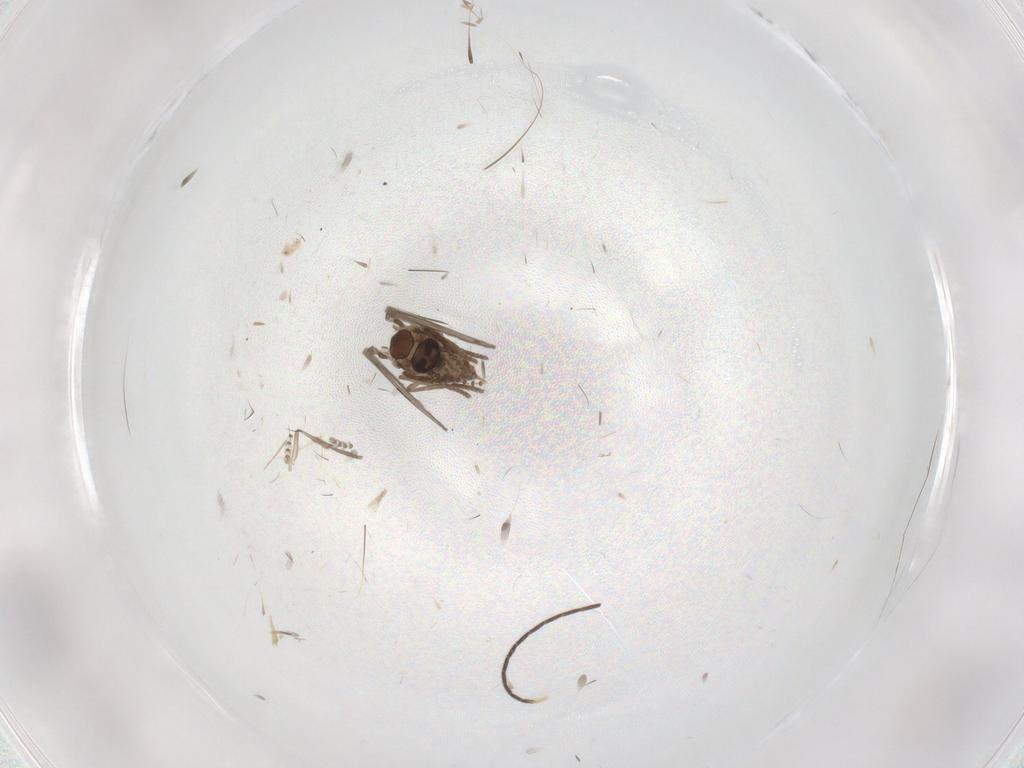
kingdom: Animalia
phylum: Arthropoda
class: Insecta
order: Diptera
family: Psychodidae
